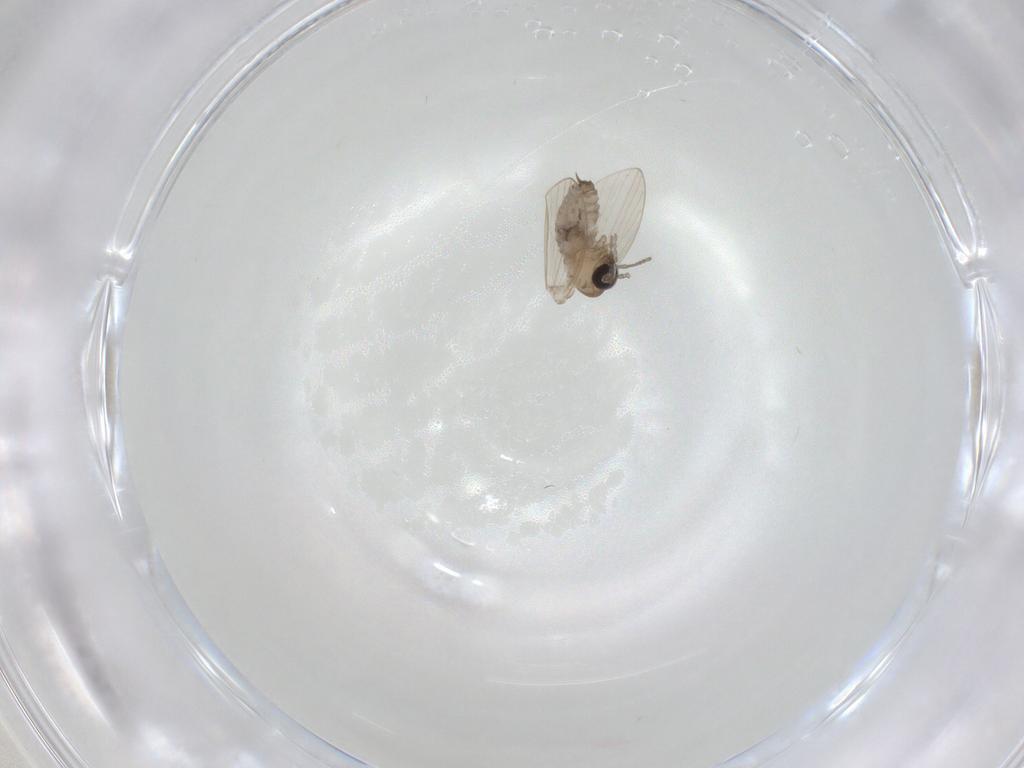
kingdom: Animalia
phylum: Arthropoda
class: Insecta
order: Diptera
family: Psychodidae
